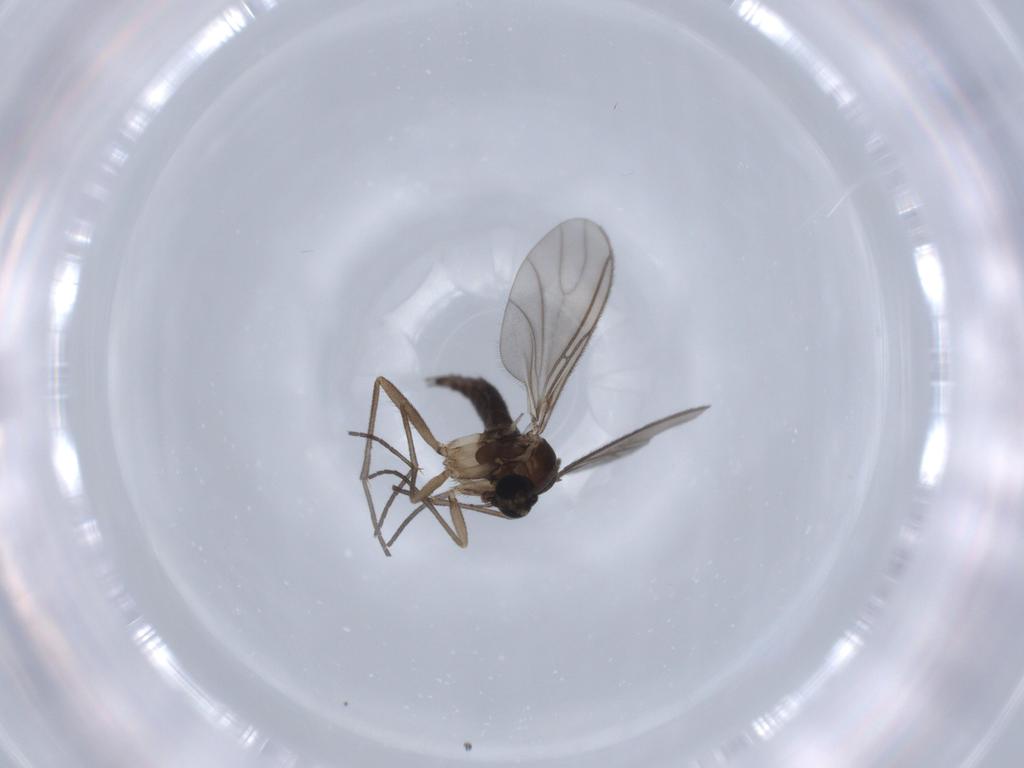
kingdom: Animalia
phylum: Arthropoda
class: Insecta
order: Diptera
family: Sciaridae
